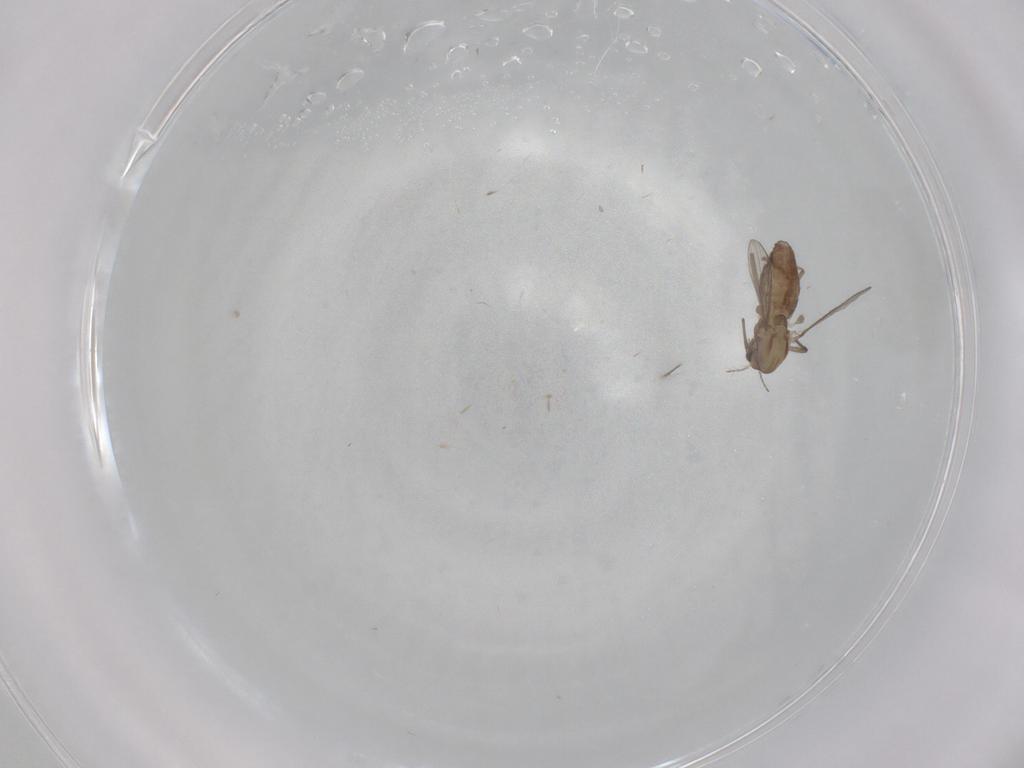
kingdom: Animalia
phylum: Arthropoda
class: Insecta
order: Diptera
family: Chironomidae
